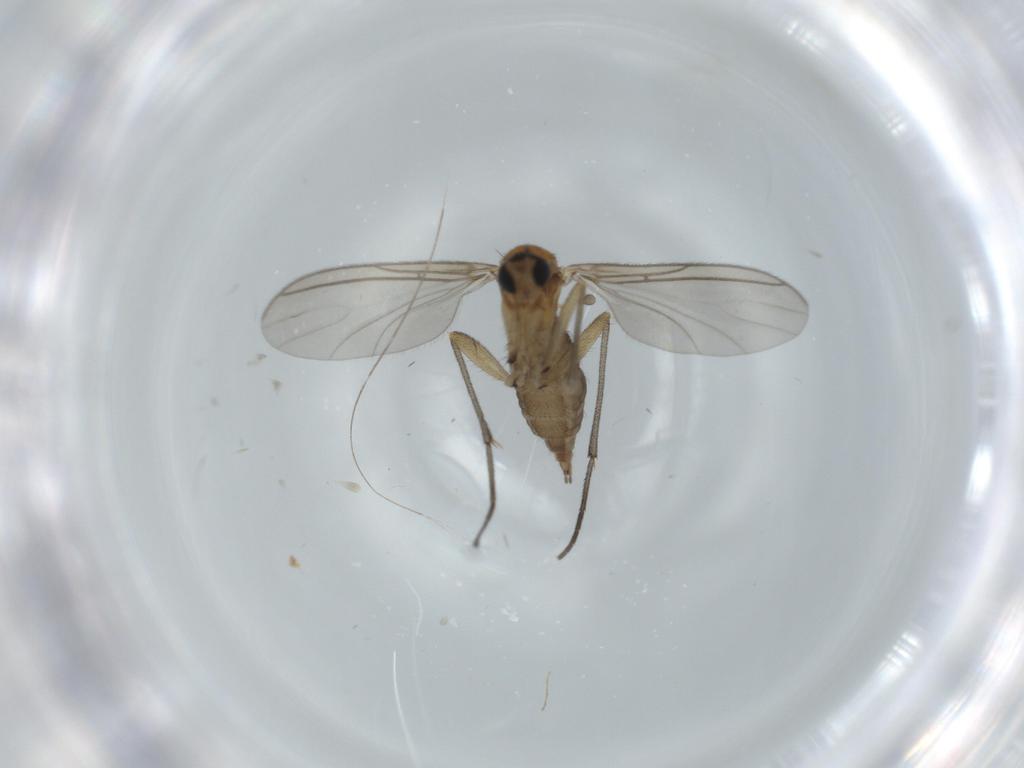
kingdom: Animalia
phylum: Arthropoda
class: Insecta
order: Diptera
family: Sciaridae
